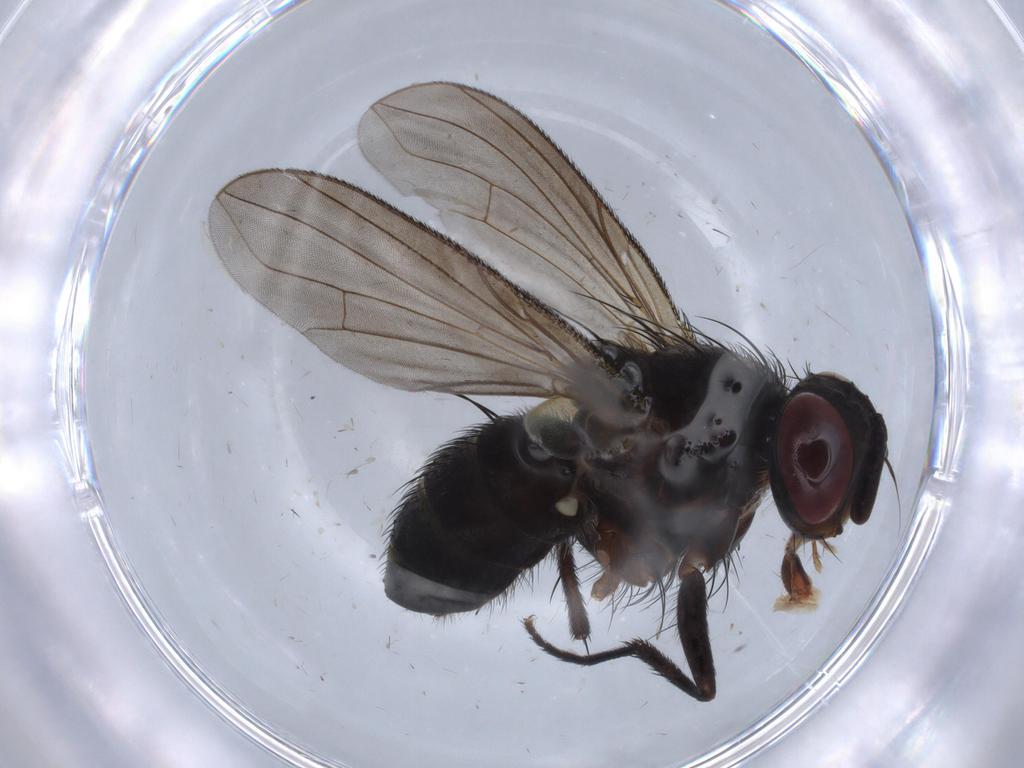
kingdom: Animalia
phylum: Arthropoda
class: Insecta
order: Diptera
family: Tachinidae
